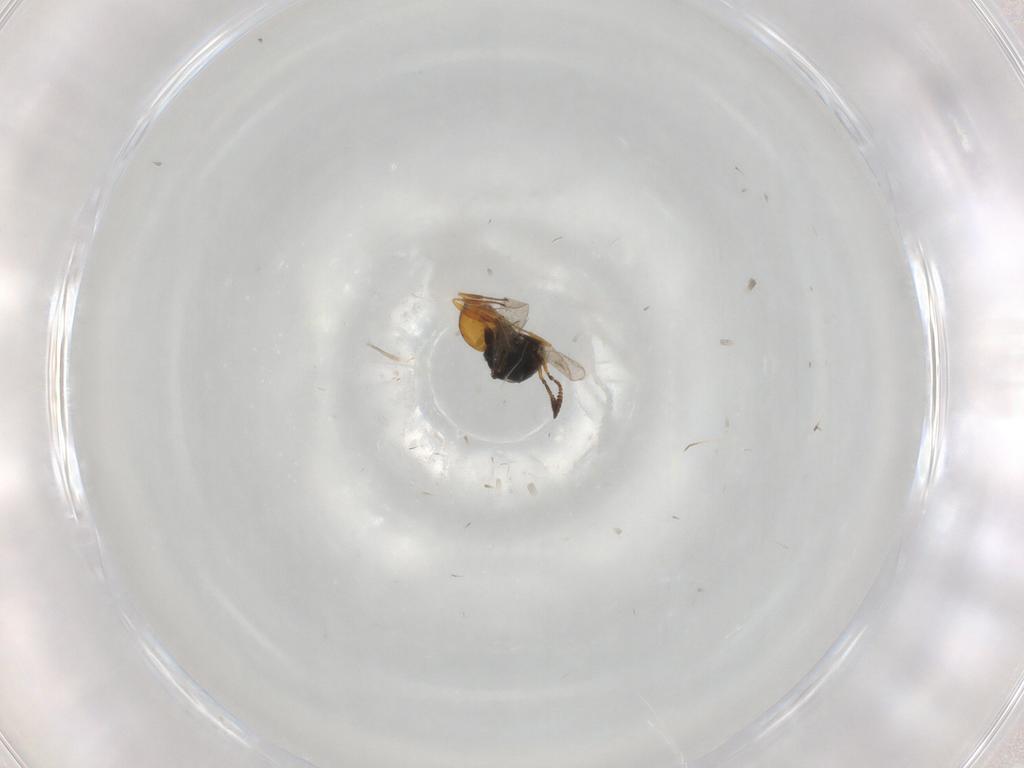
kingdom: Animalia
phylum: Arthropoda
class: Insecta
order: Hymenoptera
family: Scelionidae
